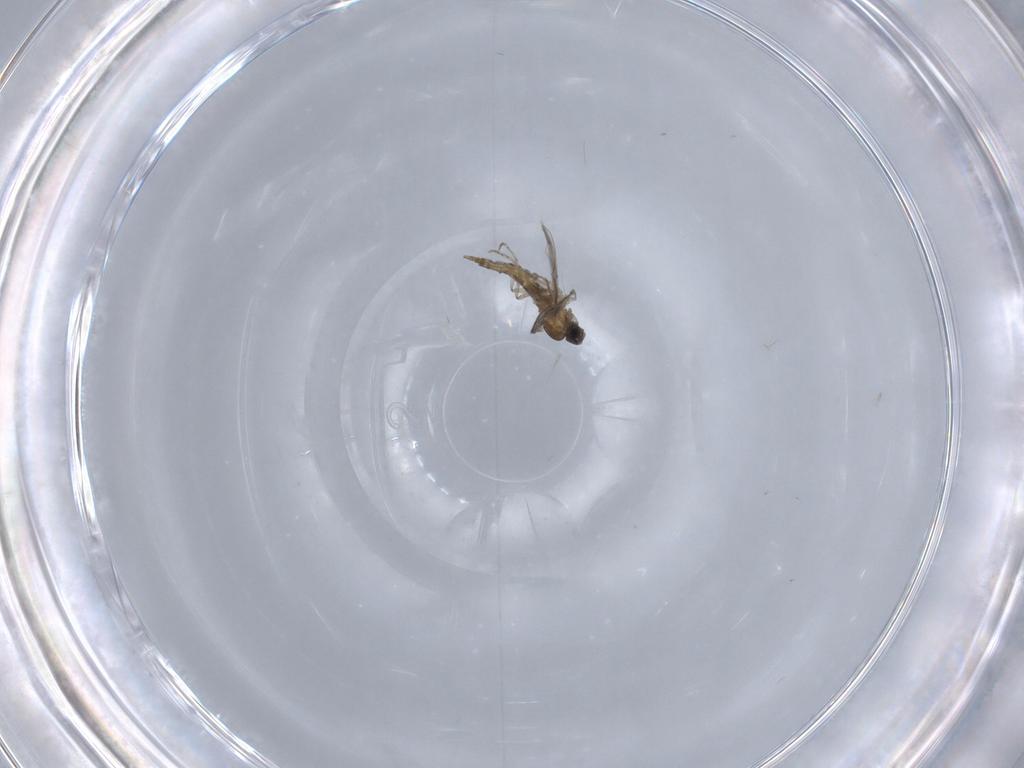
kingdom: Animalia
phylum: Arthropoda
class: Insecta
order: Diptera
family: Cecidomyiidae
